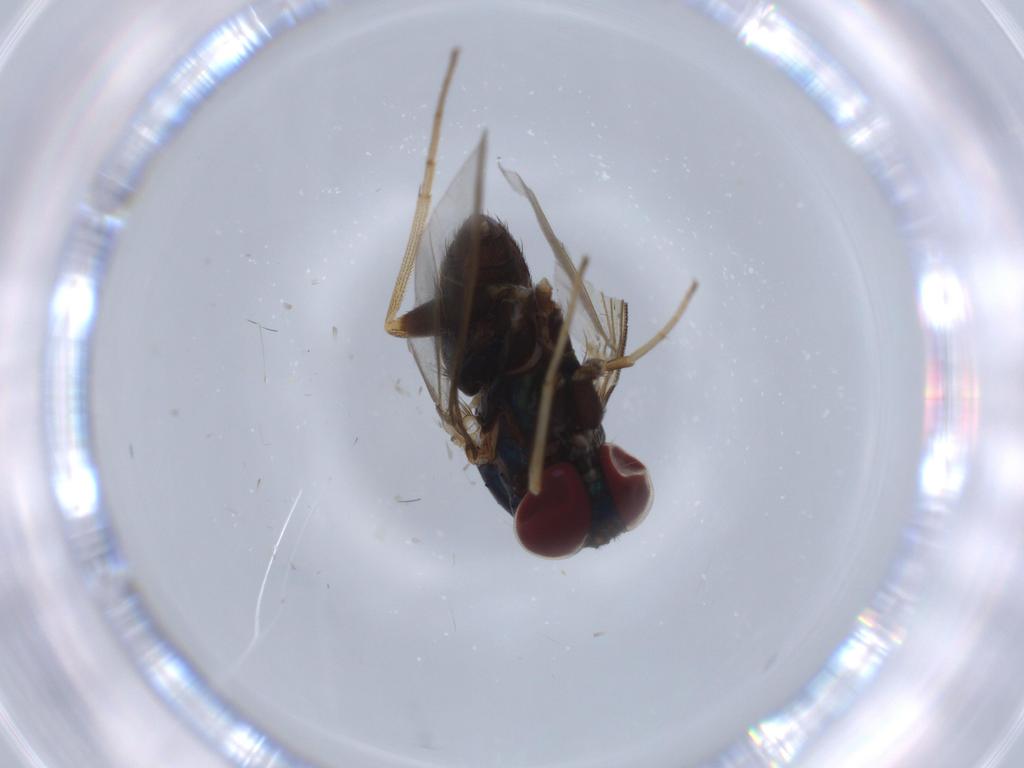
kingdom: Animalia
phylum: Arthropoda
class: Insecta
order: Diptera
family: Dolichopodidae
